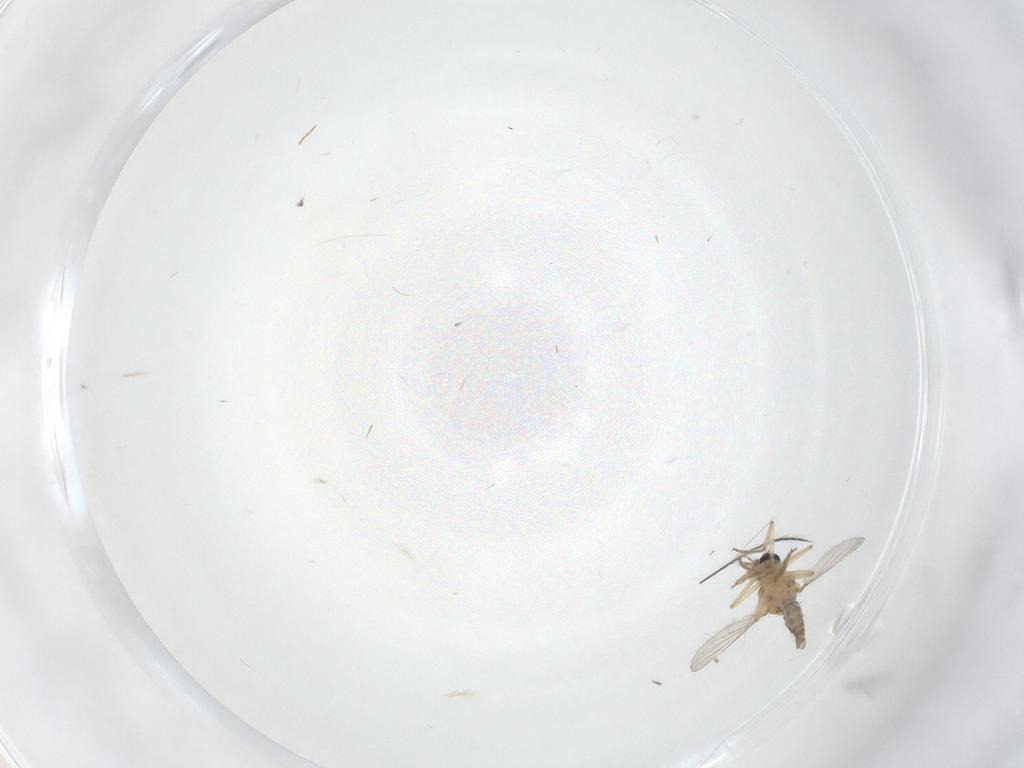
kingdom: Animalia
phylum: Arthropoda
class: Insecta
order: Diptera
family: Ceratopogonidae
